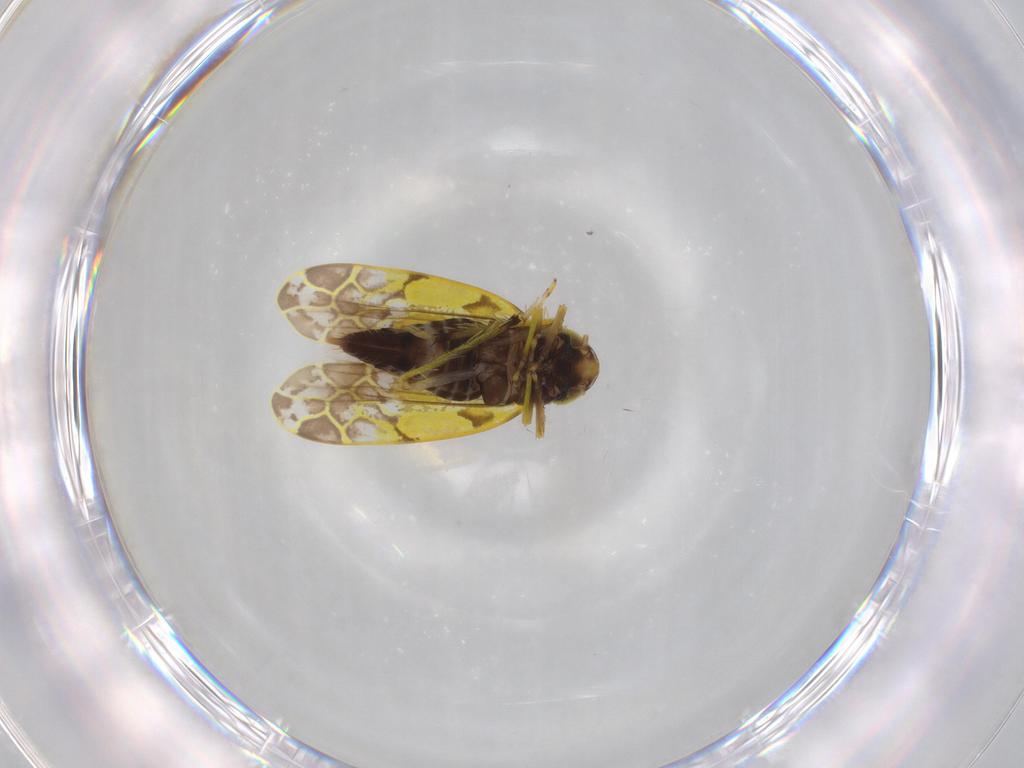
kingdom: Animalia
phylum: Arthropoda
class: Insecta
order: Hemiptera
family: Cicadellidae
